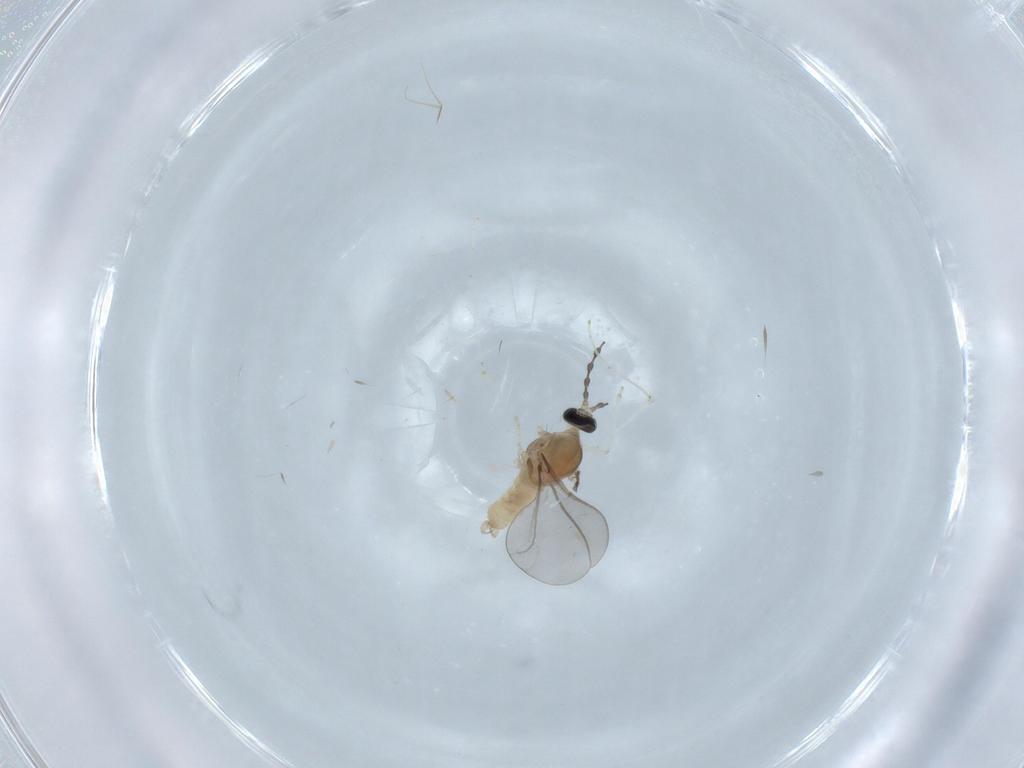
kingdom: Animalia
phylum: Arthropoda
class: Insecta
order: Diptera
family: Cecidomyiidae
